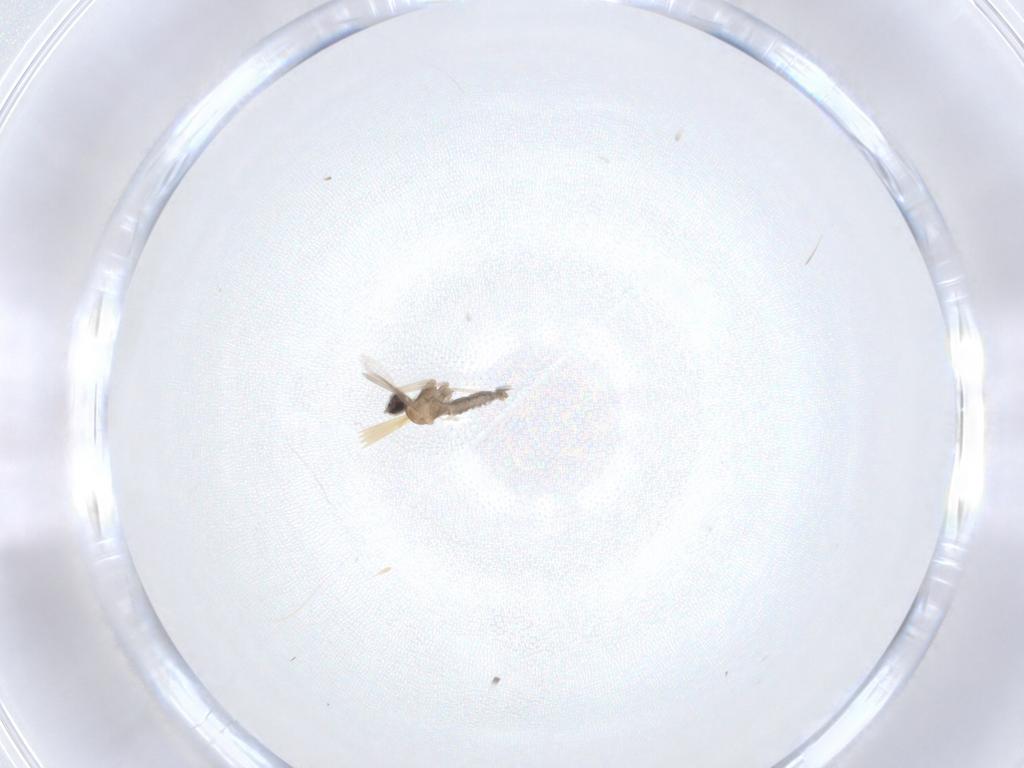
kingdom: Animalia
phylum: Arthropoda
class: Insecta
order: Diptera
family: Cecidomyiidae
